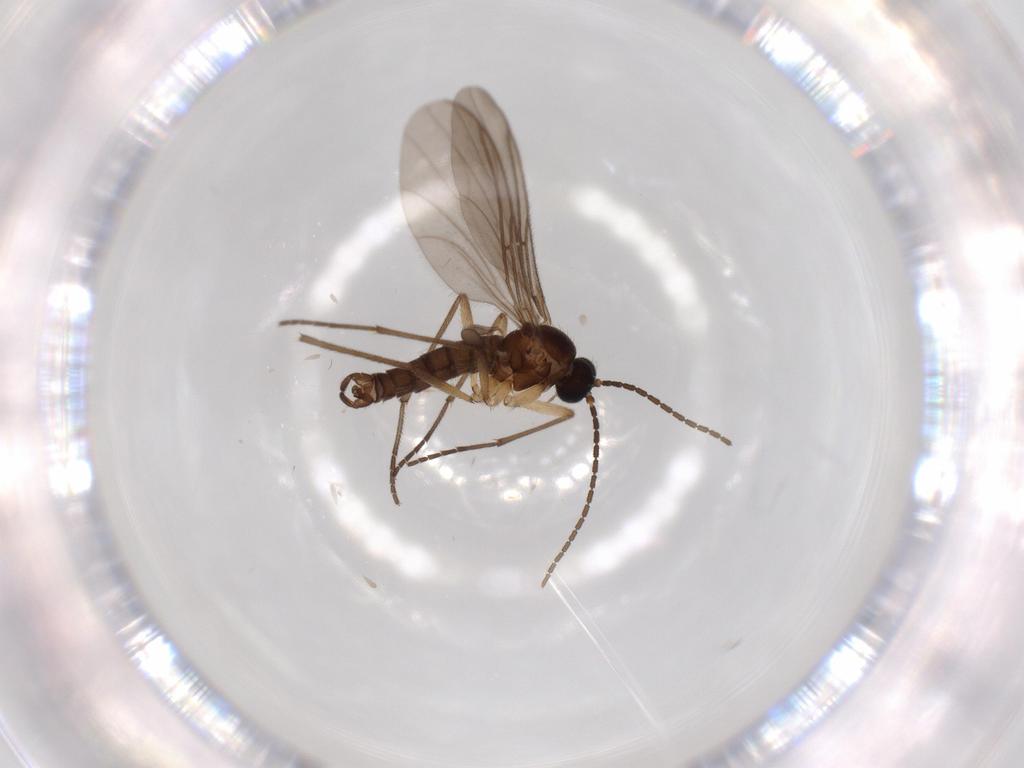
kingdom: Animalia
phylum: Arthropoda
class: Insecta
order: Diptera
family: Sciaridae
